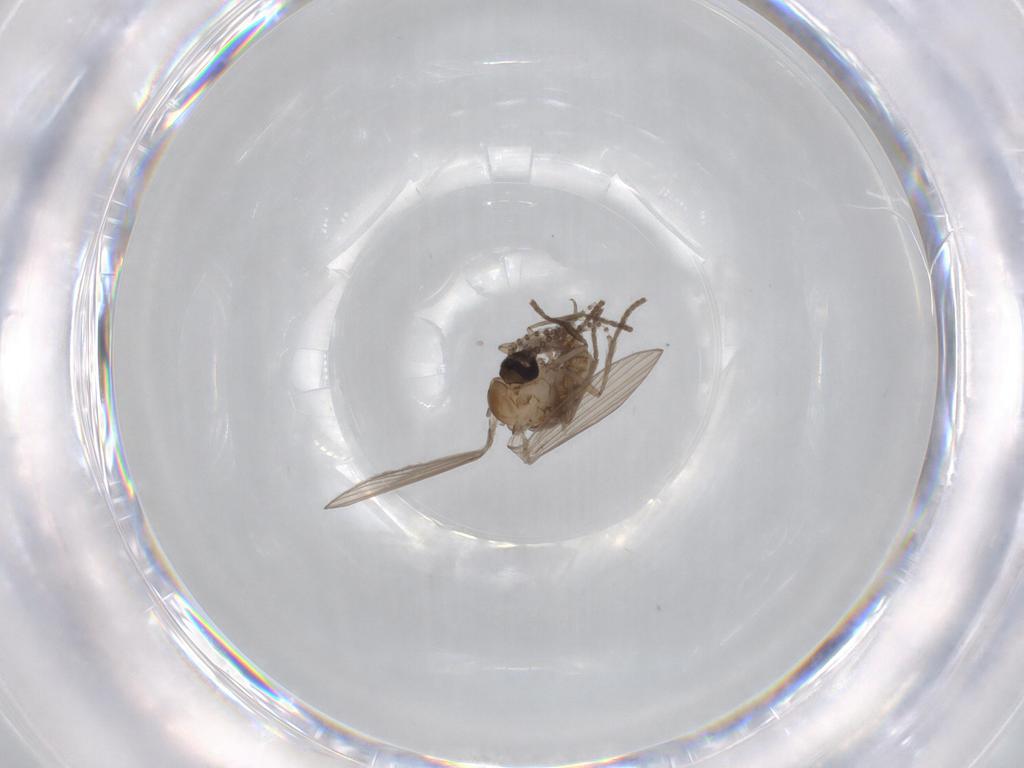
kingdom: Animalia
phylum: Arthropoda
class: Insecta
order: Diptera
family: Psychodidae
